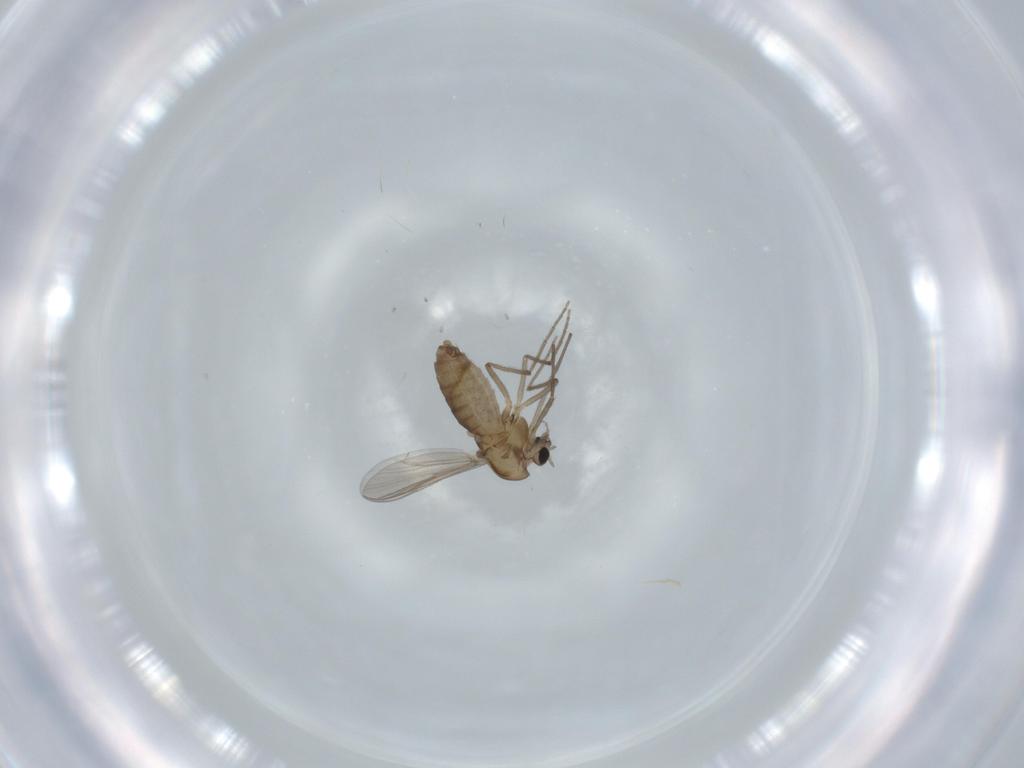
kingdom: Animalia
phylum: Arthropoda
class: Insecta
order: Diptera
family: Chironomidae
